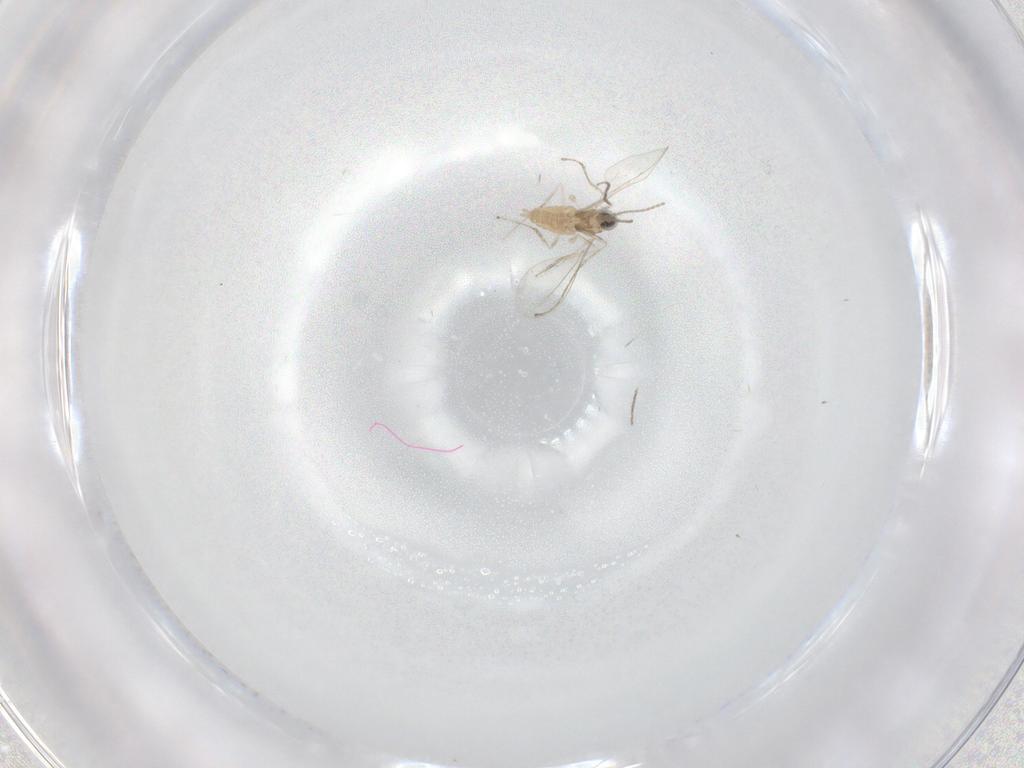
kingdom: Animalia
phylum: Arthropoda
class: Insecta
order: Diptera
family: Cecidomyiidae
